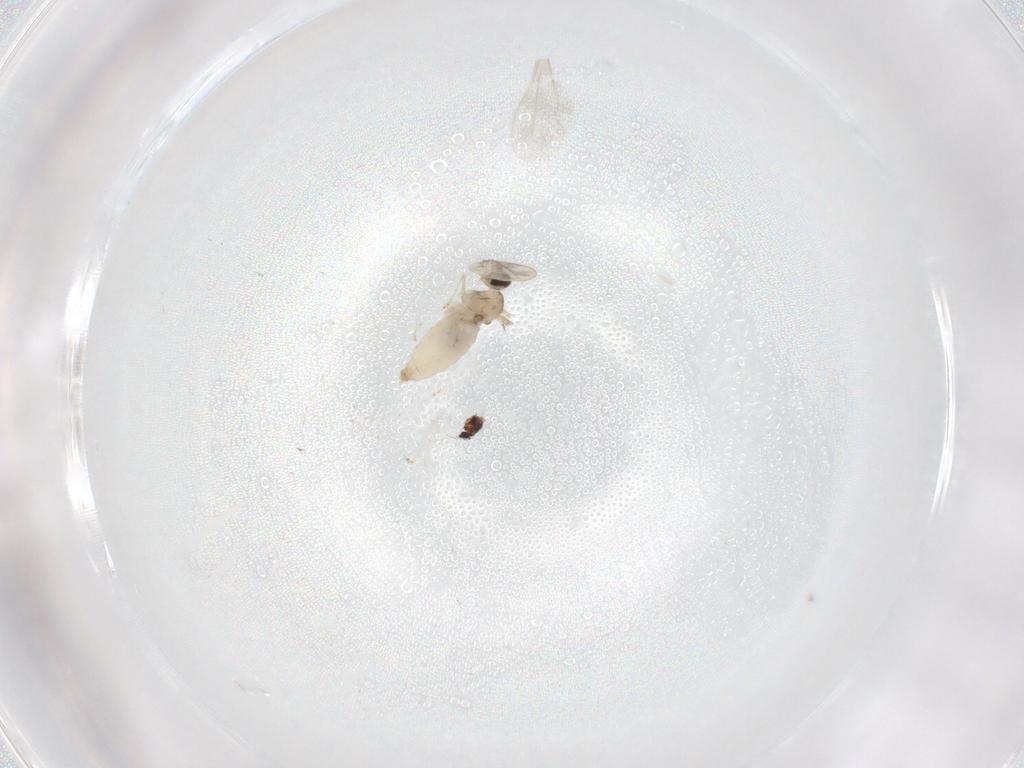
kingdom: Animalia
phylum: Arthropoda
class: Insecta
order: Diptera
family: Cecidomyiidae
